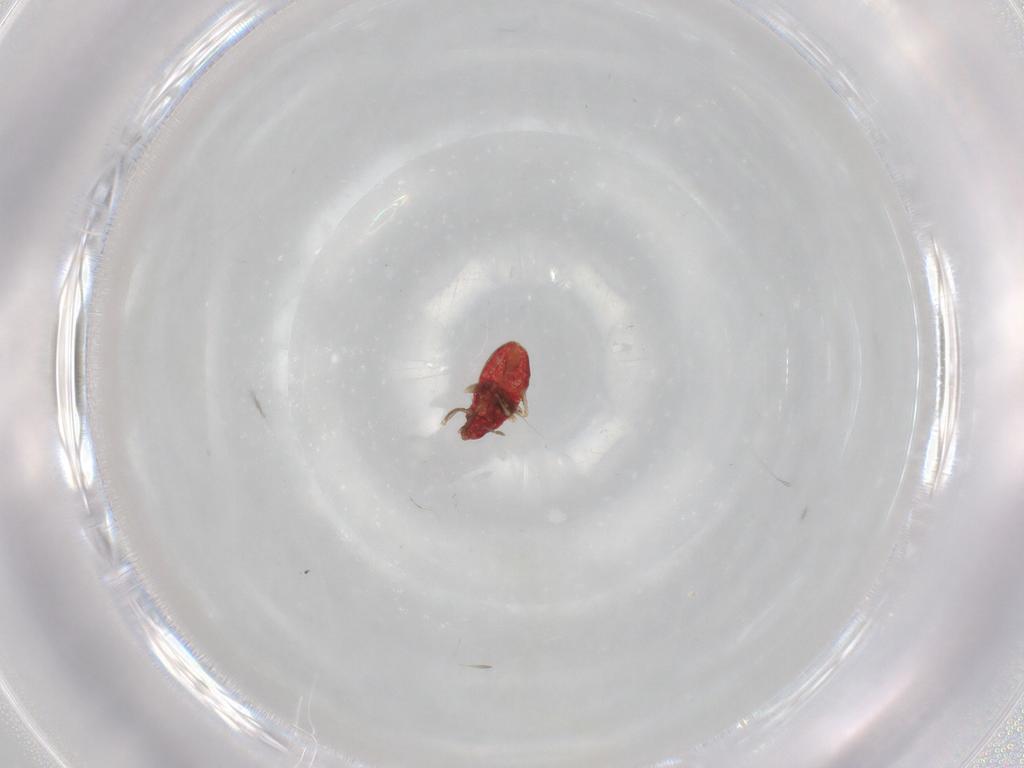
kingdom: Animalia
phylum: Arthropoda
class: Insecta
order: Hemiptera
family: Anthocoridae
